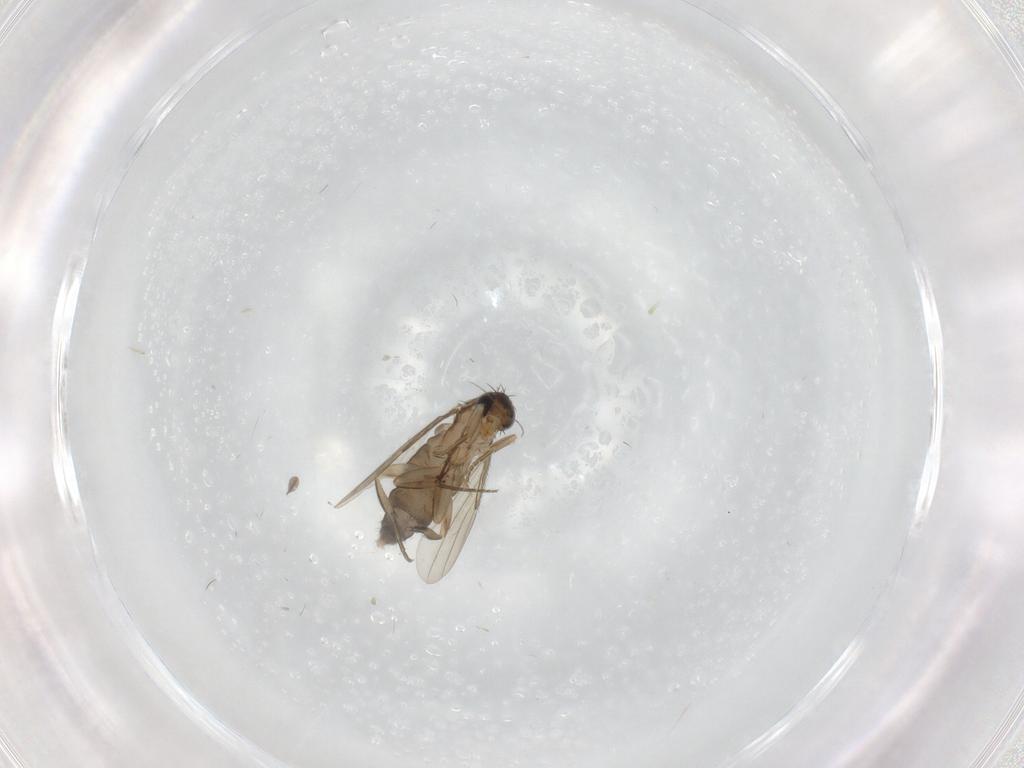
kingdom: Animalia
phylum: Arthropoda
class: Insecta
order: Diptera
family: Phoridae
